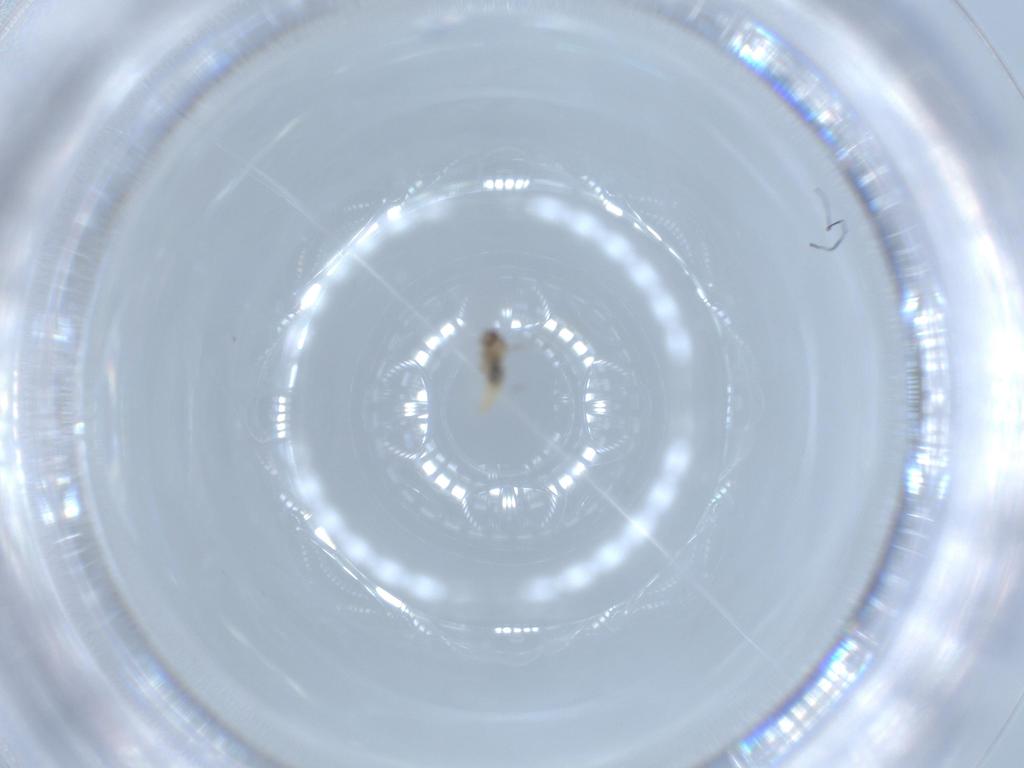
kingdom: Animalia
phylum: Arthropoda
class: Insecta
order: Diptera
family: Cecidomyiidae
